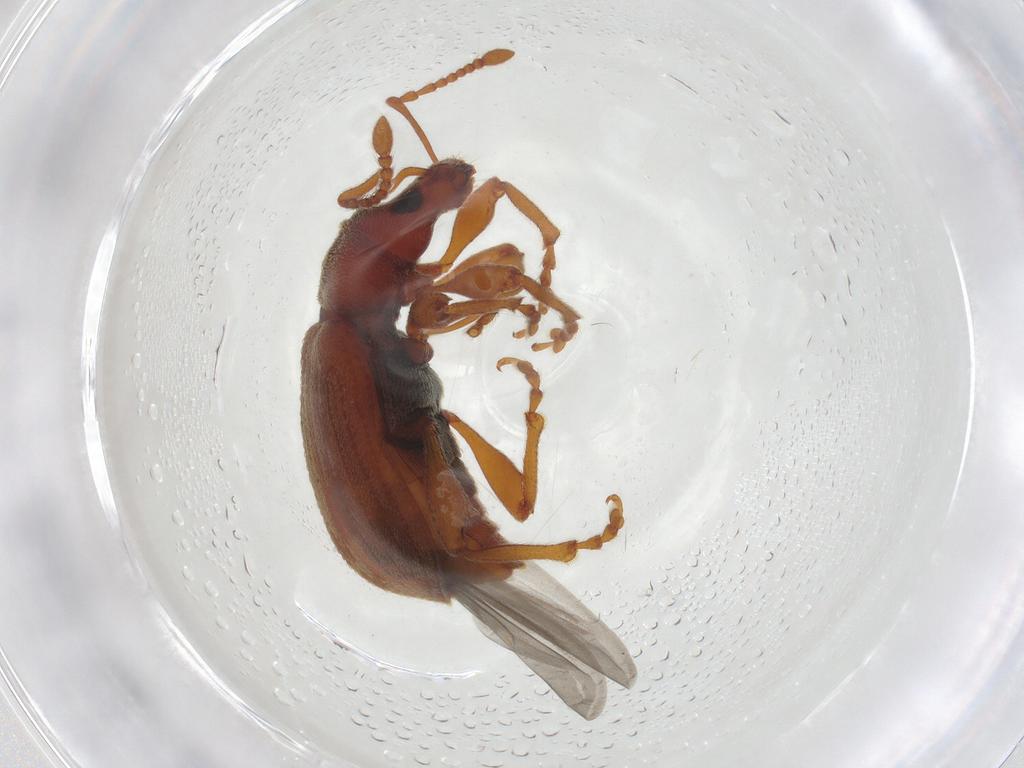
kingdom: Animalia
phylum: Arthropoda
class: Insecta
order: Coleoptera
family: Curculionidae
